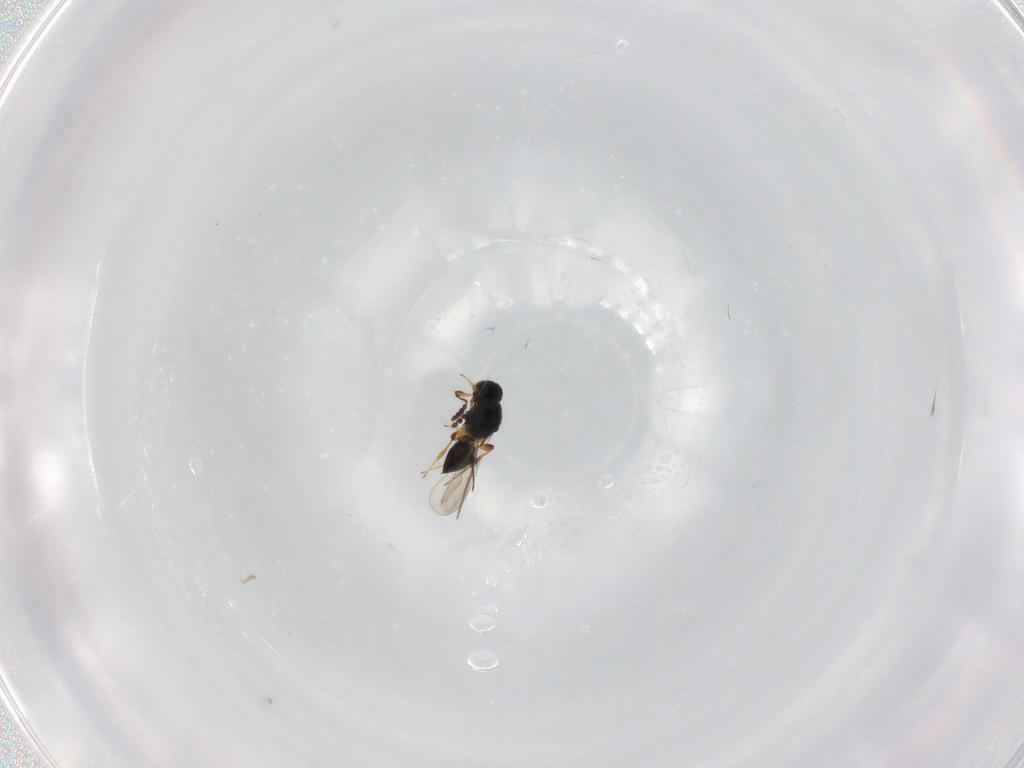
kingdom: Animalia
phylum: Arthropoda
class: Insecta
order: Hymenoptera
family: Eulophidae
